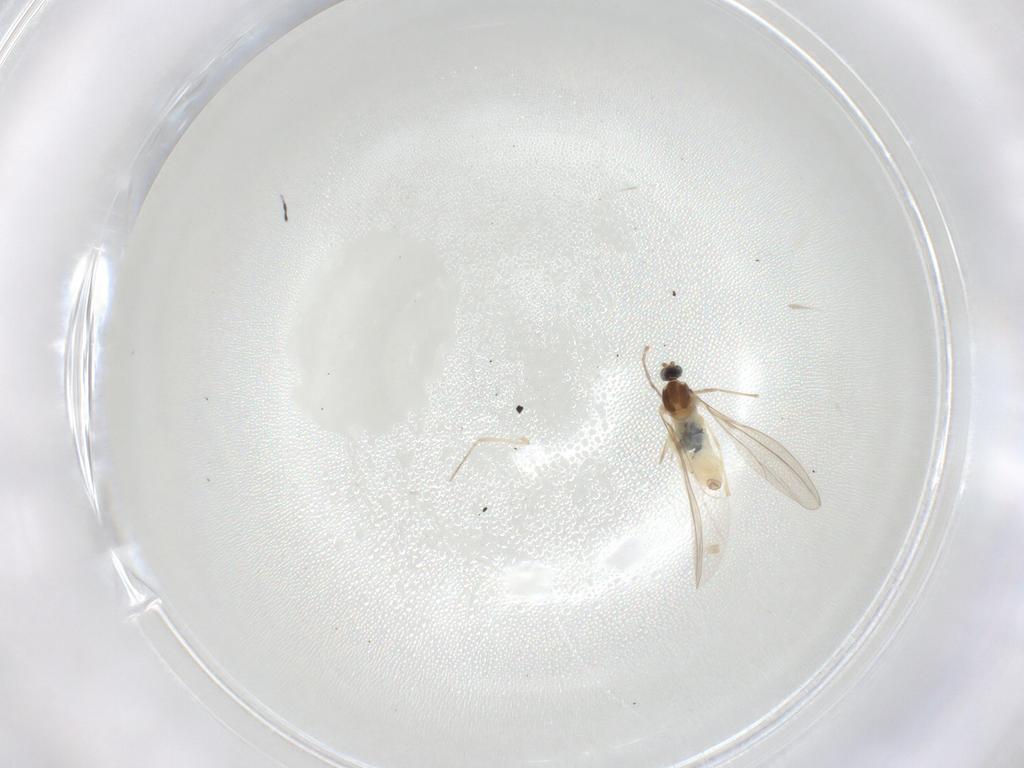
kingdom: Animalia
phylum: Arthropoda
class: Insecta
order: Diptera
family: Cecidomyiidae
